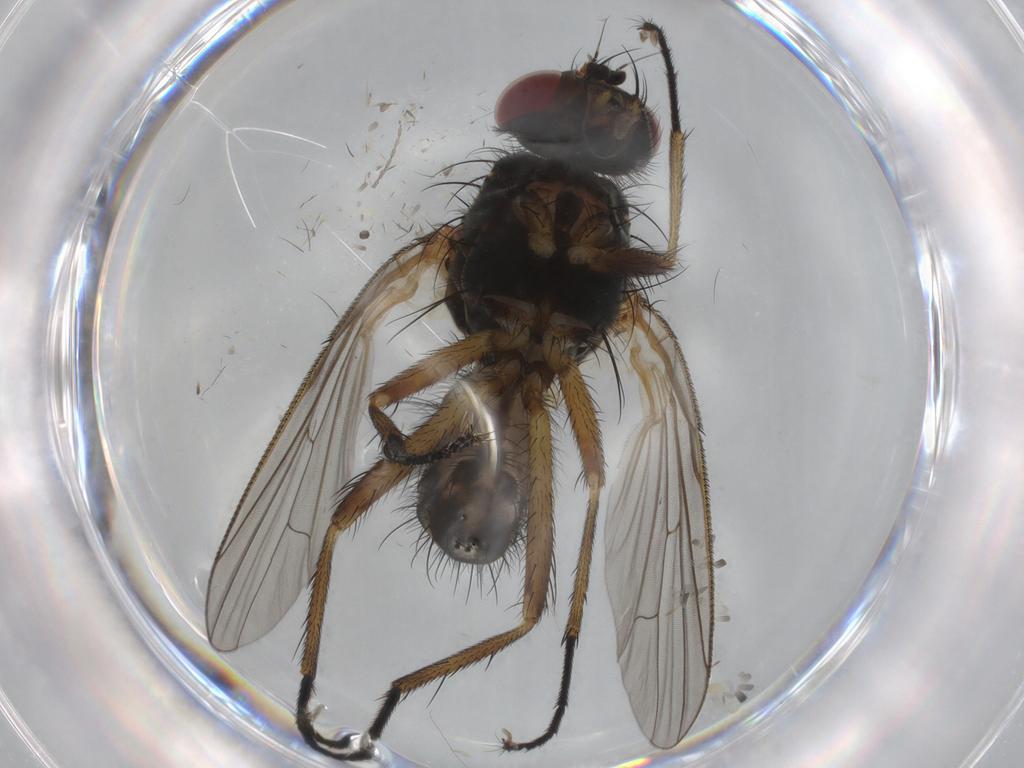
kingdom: Animalia
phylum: Arthropoda
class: Insecta
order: Diptera
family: Anthomyiidae
